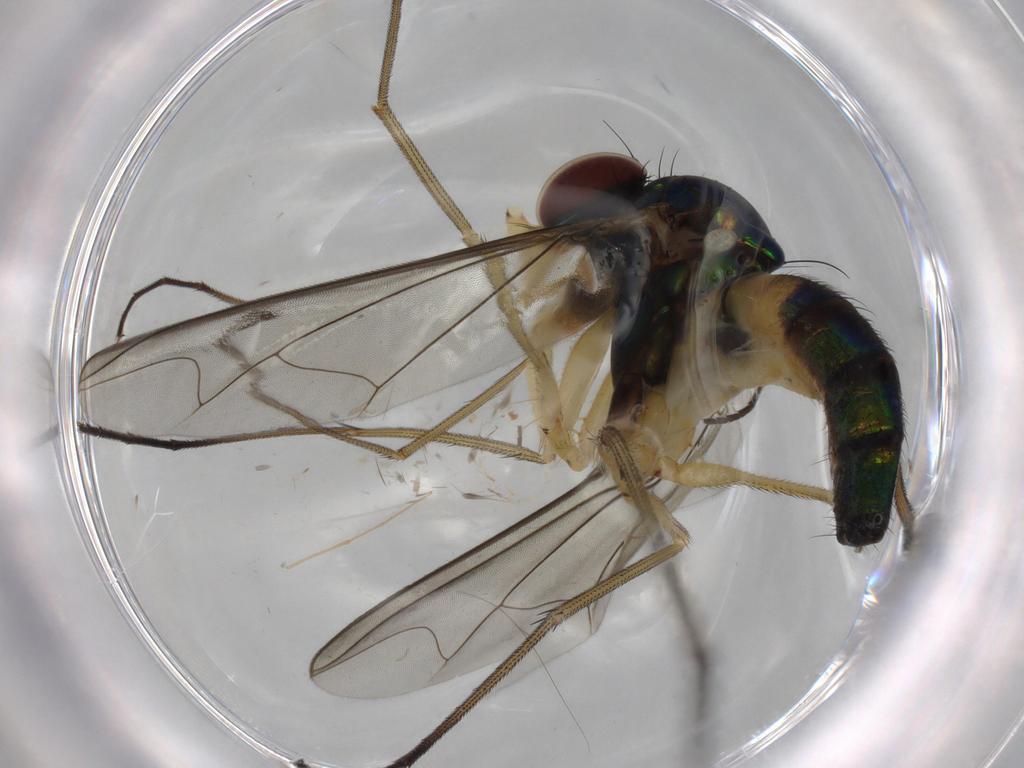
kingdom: Animalia
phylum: Arthropoda
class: Insecta
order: Diptera
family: Dolichopodidae
